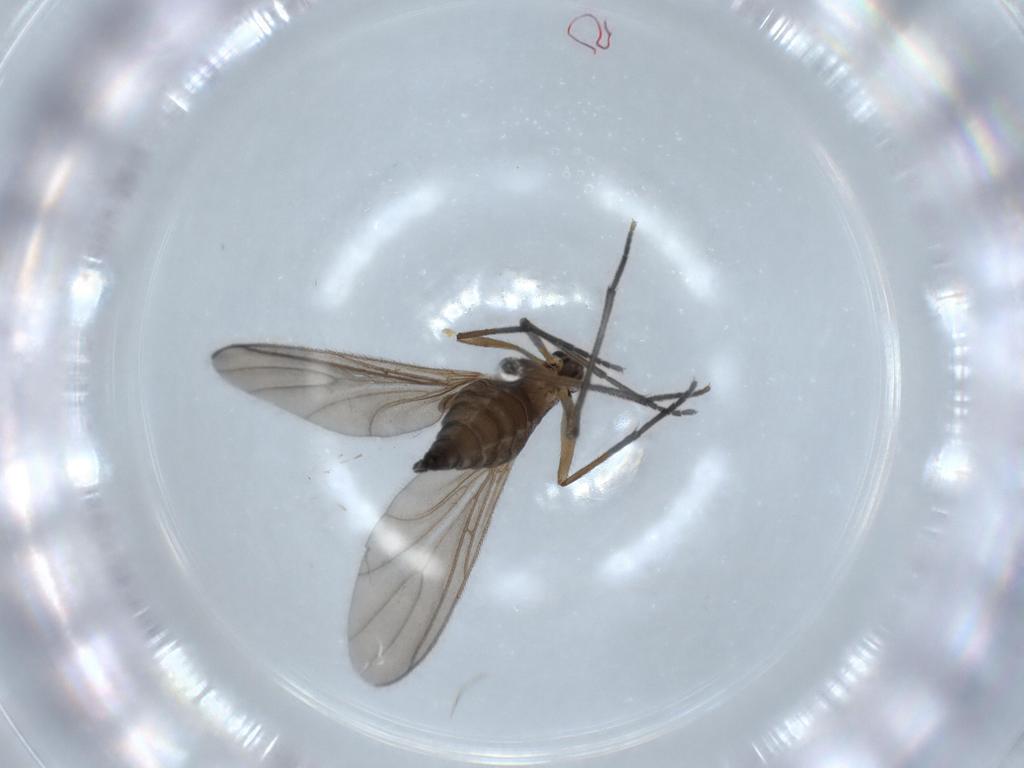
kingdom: Animalia
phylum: Arthropoda
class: Insecta
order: Diptera
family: Sciaridae
